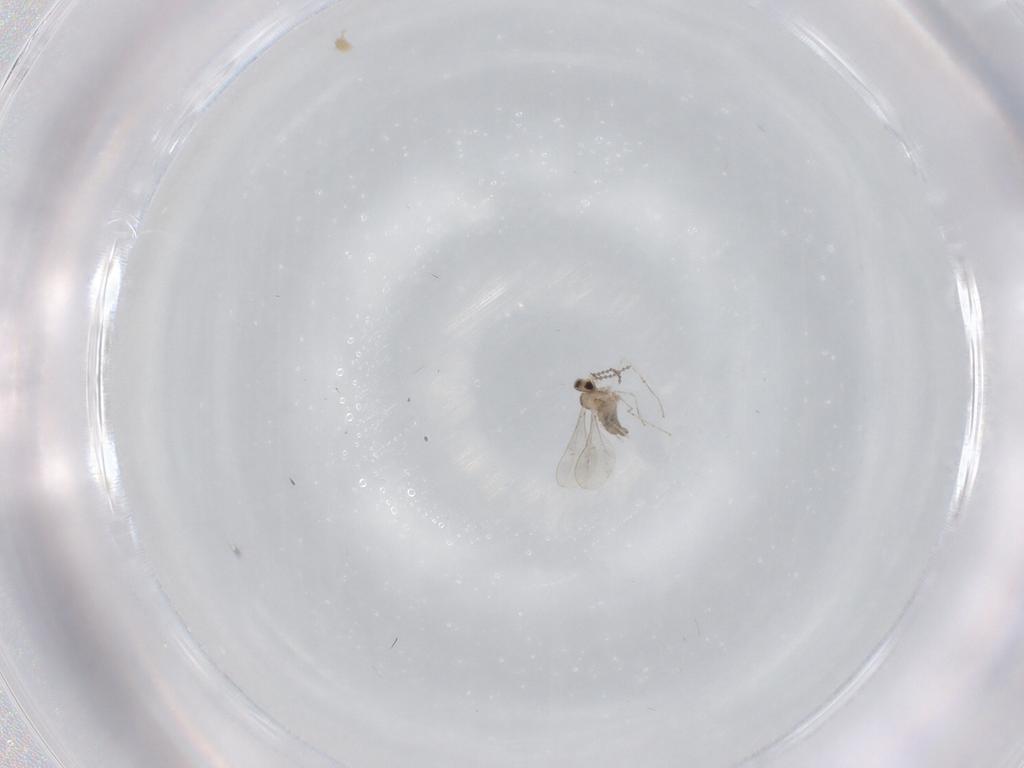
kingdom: Animalia
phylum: Arthropoda
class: Insecta
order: Diptera
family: Cecidomyiidae
